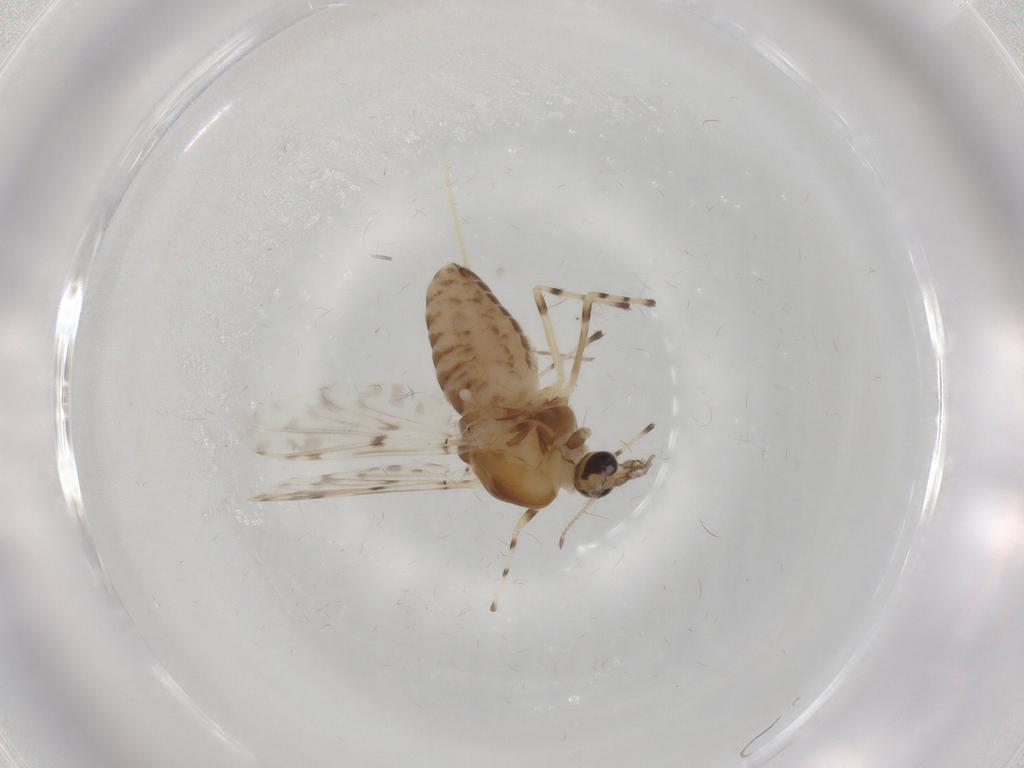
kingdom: Animalia
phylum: Arthropoda
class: Insecta
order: Diptera
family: Chironomidae
